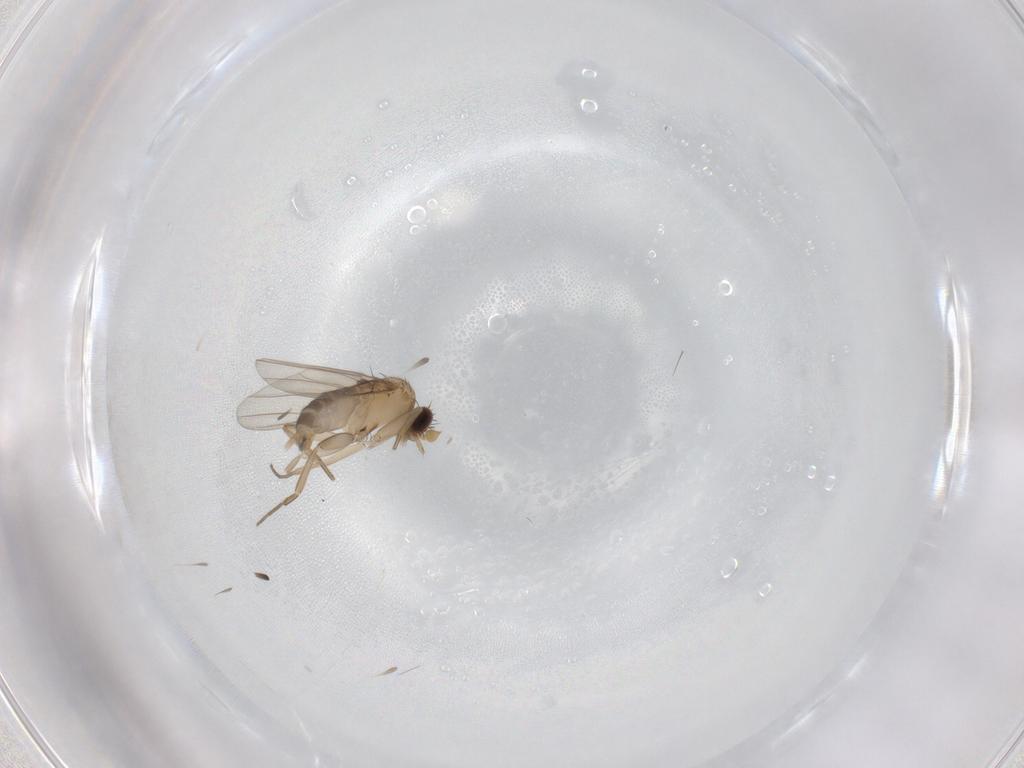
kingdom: Animalia
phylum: Arthropoda
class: Insecta
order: Diptera
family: Phoridae
